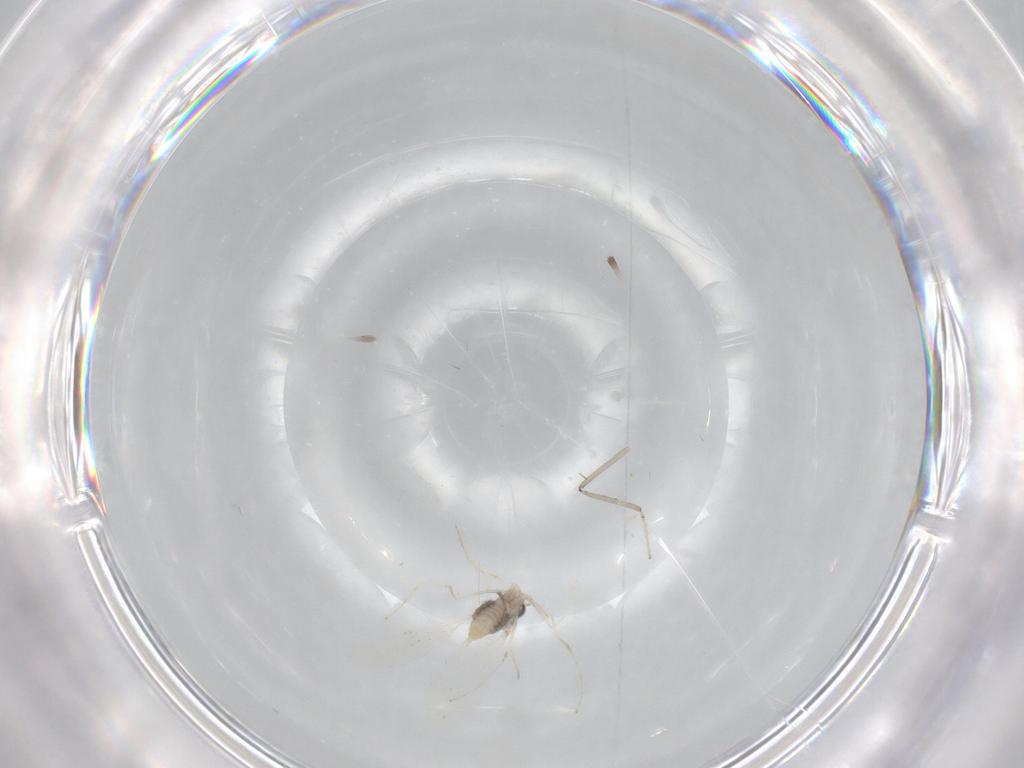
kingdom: Animalia
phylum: Arthropoda
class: Insecta
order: Diptera
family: Cecidomyiidae
